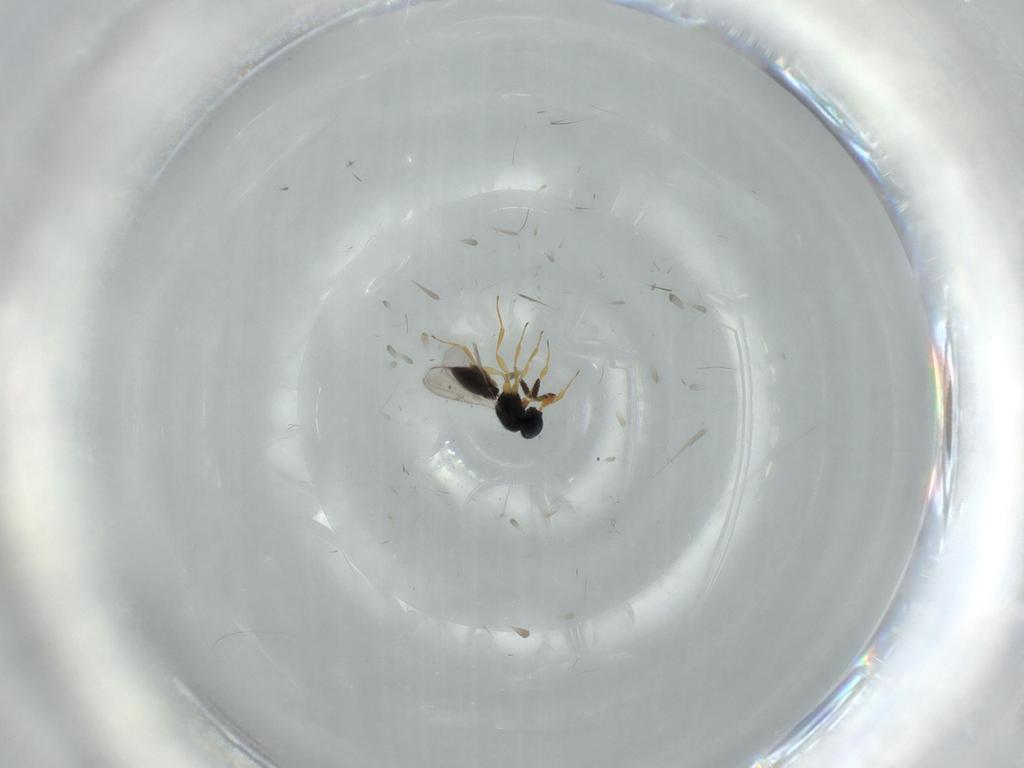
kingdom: Animalia
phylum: Arthropoda
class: Insecta
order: Hymenoptera
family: Scelionidae
